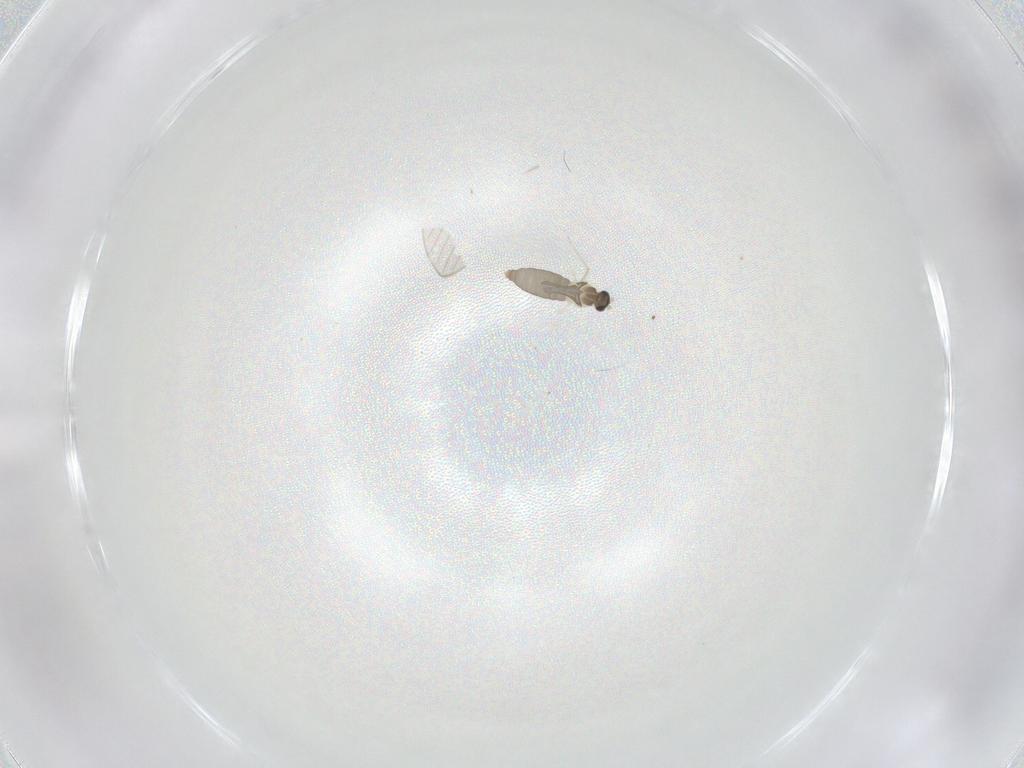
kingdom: Animalia
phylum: Arthropoda
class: Insecta
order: Diptera
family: Cecidomyiidae
